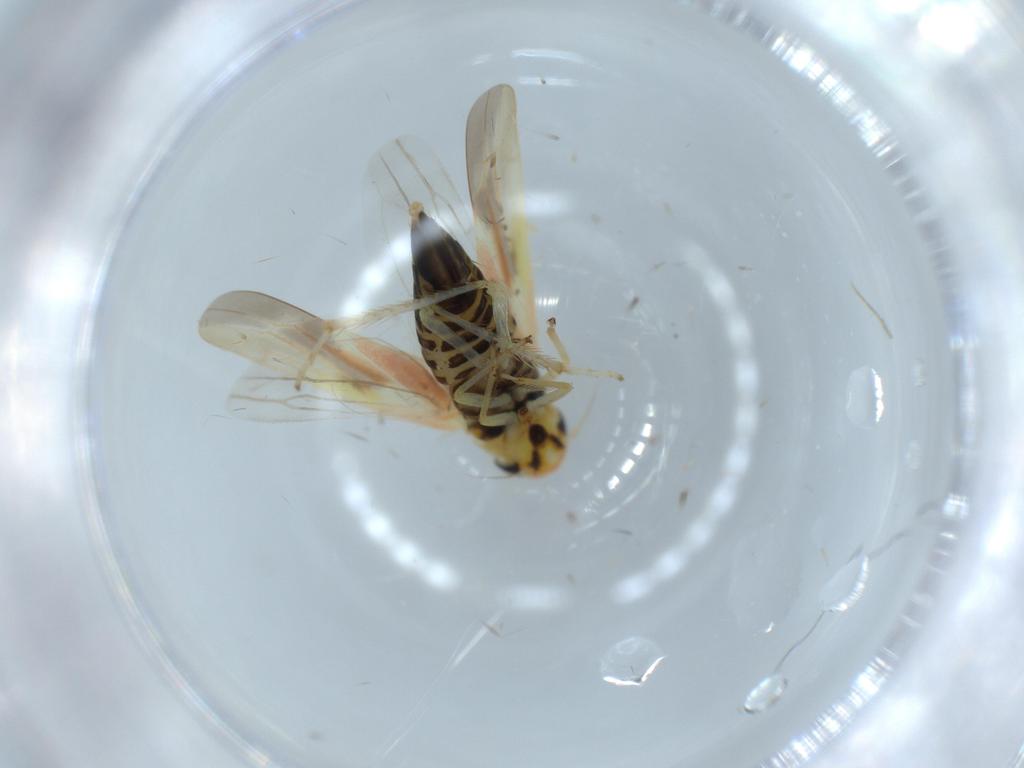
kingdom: Animalia
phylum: Arthropoda
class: Insecta
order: Hemiptera
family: Cicadellidae
